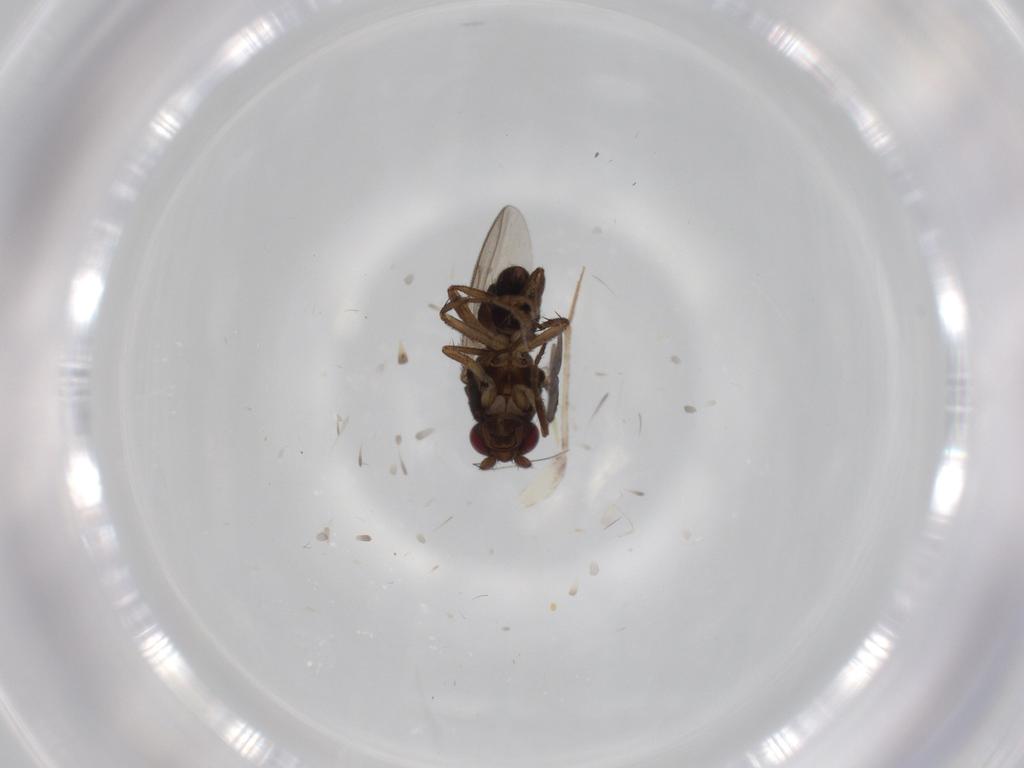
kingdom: Animalia
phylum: Arthropoda
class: Insecta
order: Diptera
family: Sphaeroceridae
